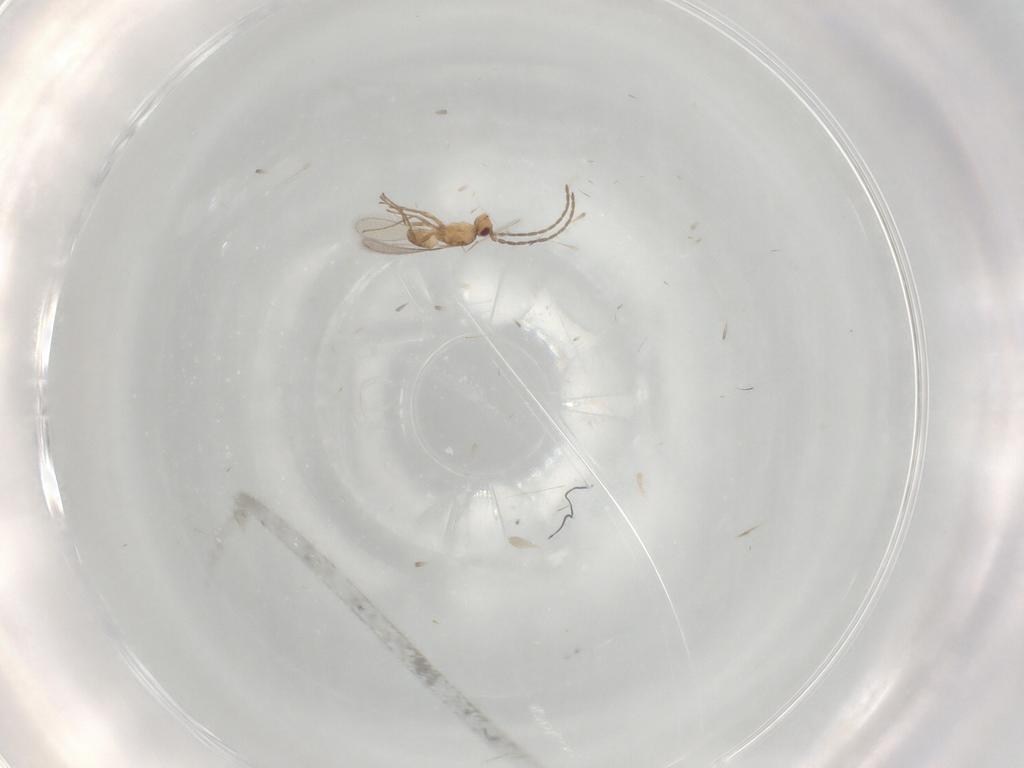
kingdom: Animalia
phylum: Arthropoda
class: Insecta
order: Hymenoptera
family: Mymaridae
